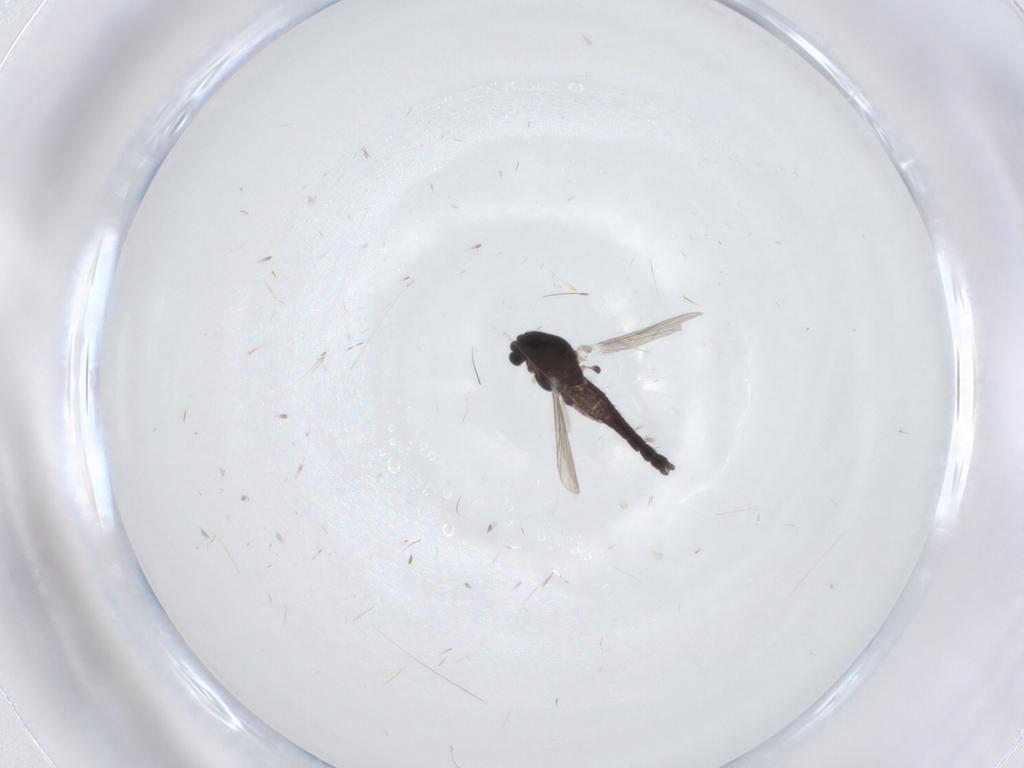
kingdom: Animalia
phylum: Arthropoda
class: Insecta
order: Diptera
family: Chironomidae
